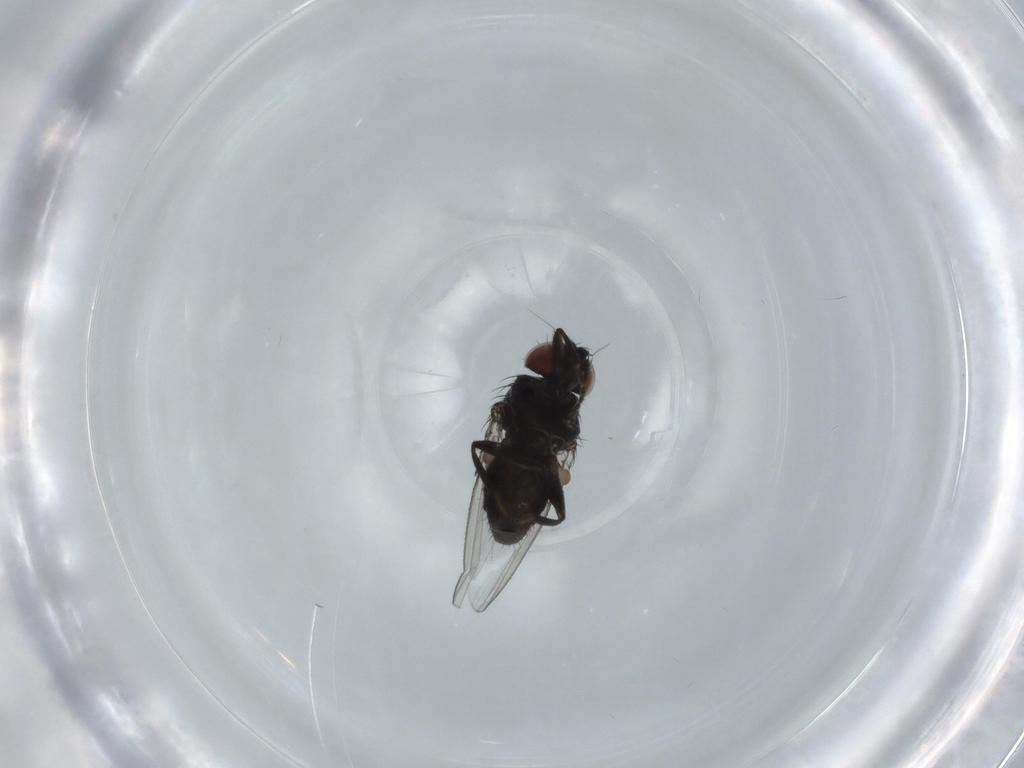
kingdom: Animalia
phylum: Arthropoda
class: Insecta
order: Diptera
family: Milichiidae
